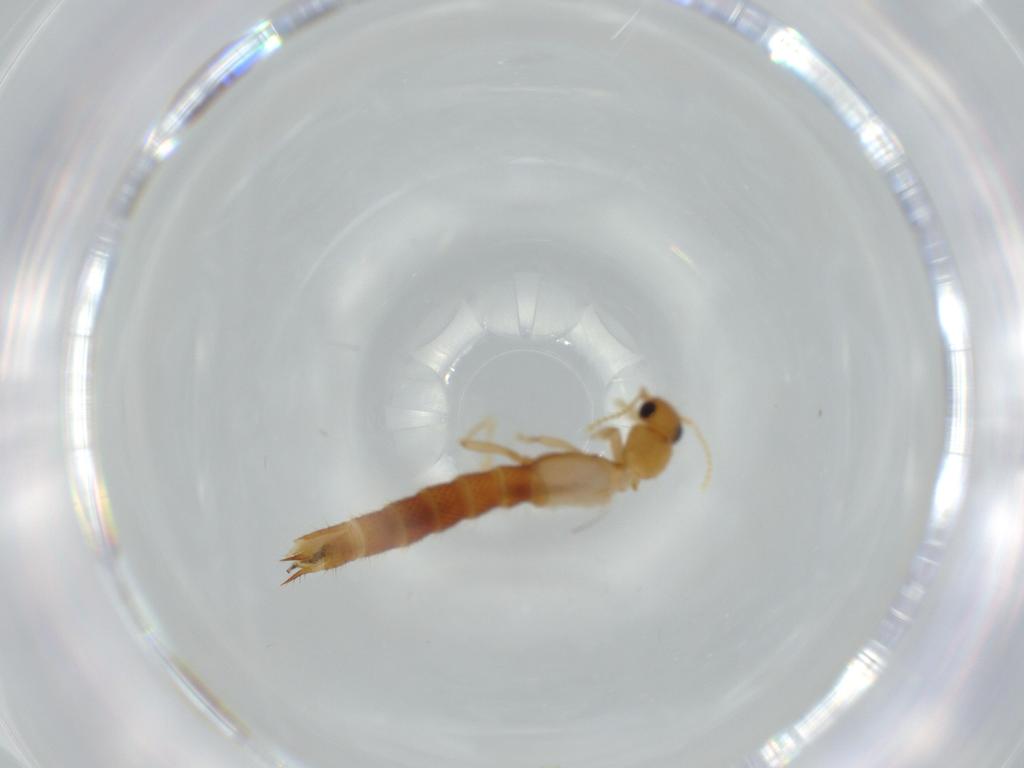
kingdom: Animalia
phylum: Arthropoda
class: Insecta
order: Coleoptera
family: Staphylinidae
